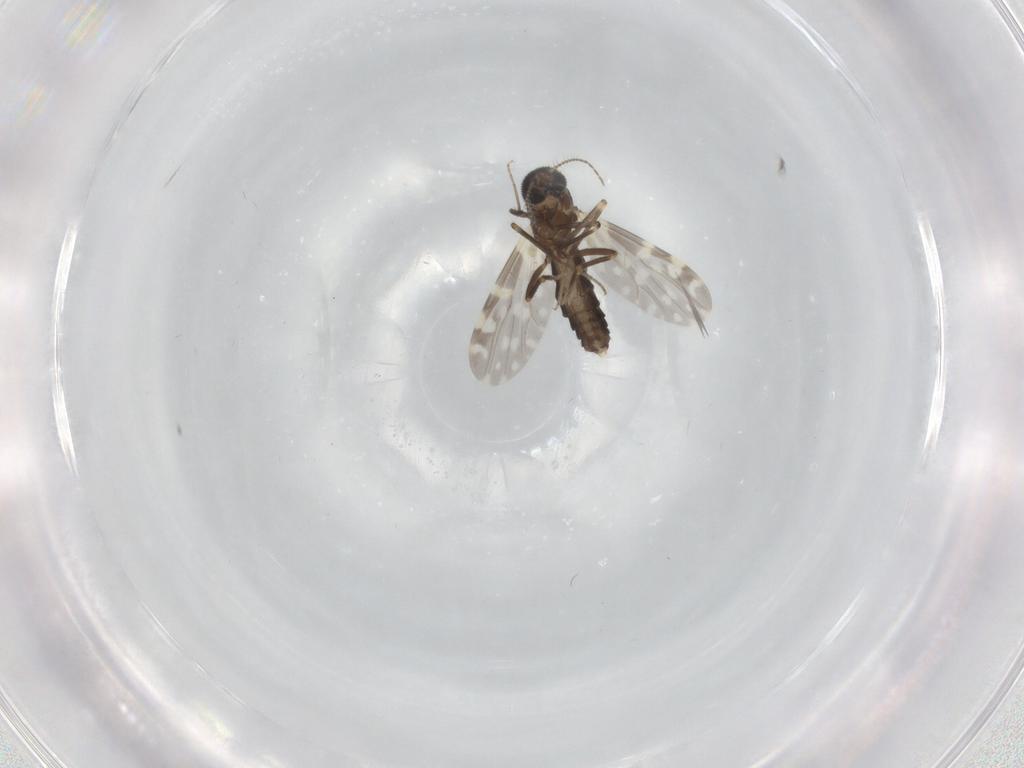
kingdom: Animalia
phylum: Arthropoda
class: Insecta
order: Diptera
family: Ceratopogonidae
